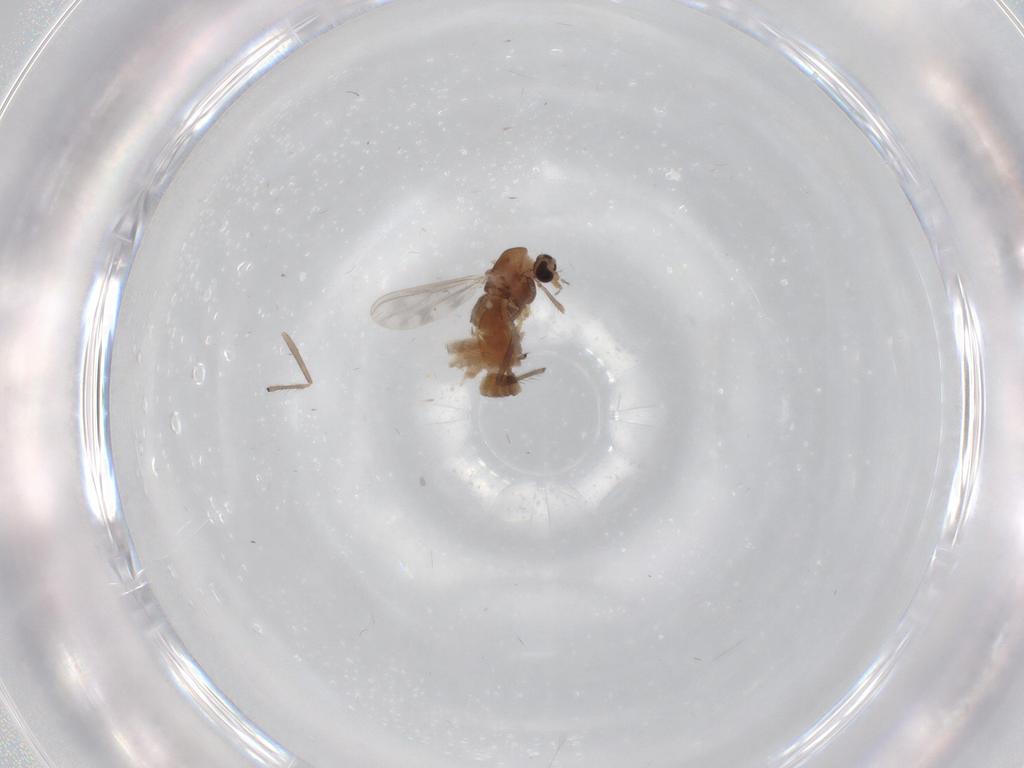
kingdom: Animalia
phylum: Arthropoda
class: Insecta
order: Diptera
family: Chironomidae
